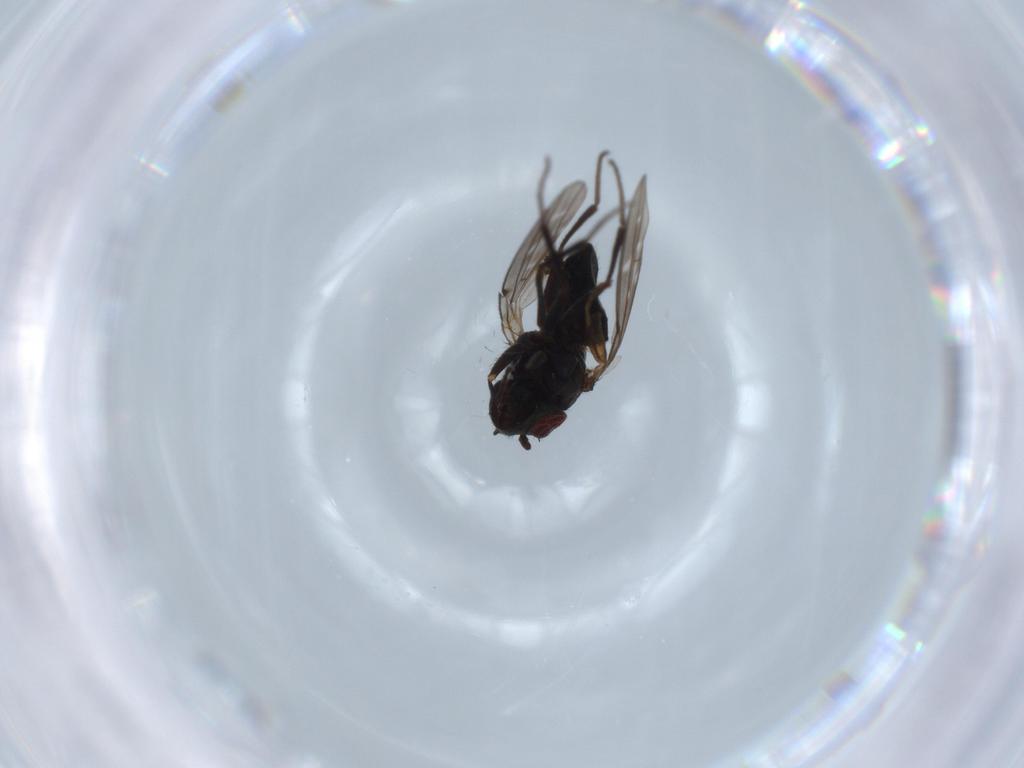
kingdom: Animalia
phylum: Arthropoda
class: Insecta
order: Diptera
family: Ephydridae
